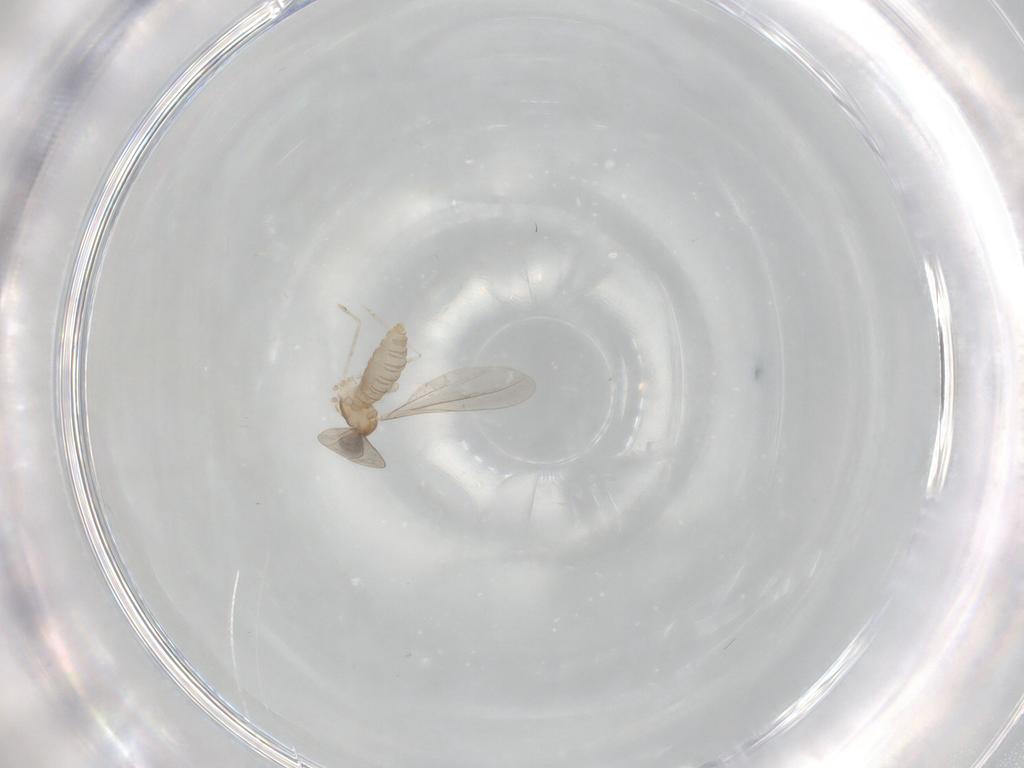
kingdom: Animalia
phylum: Arthropoda
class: Insecta
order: Diptera
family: Cecidomyiidae
